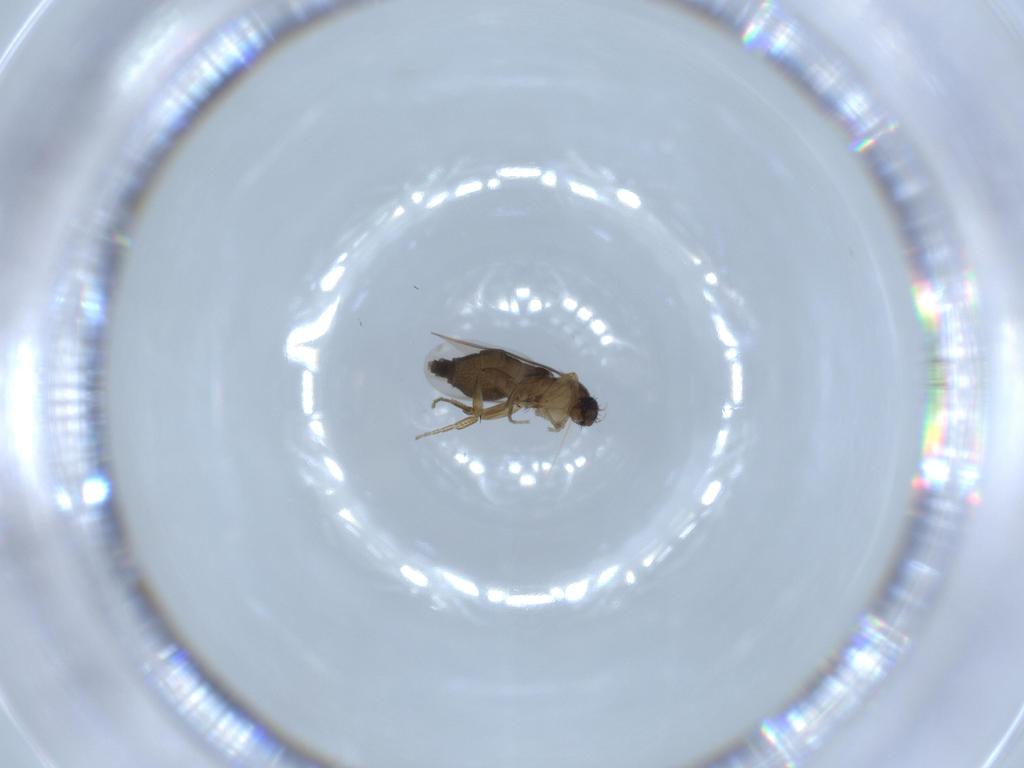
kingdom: Animalia
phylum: Arthropoda
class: Insecta
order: Diptera
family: Phoridae
